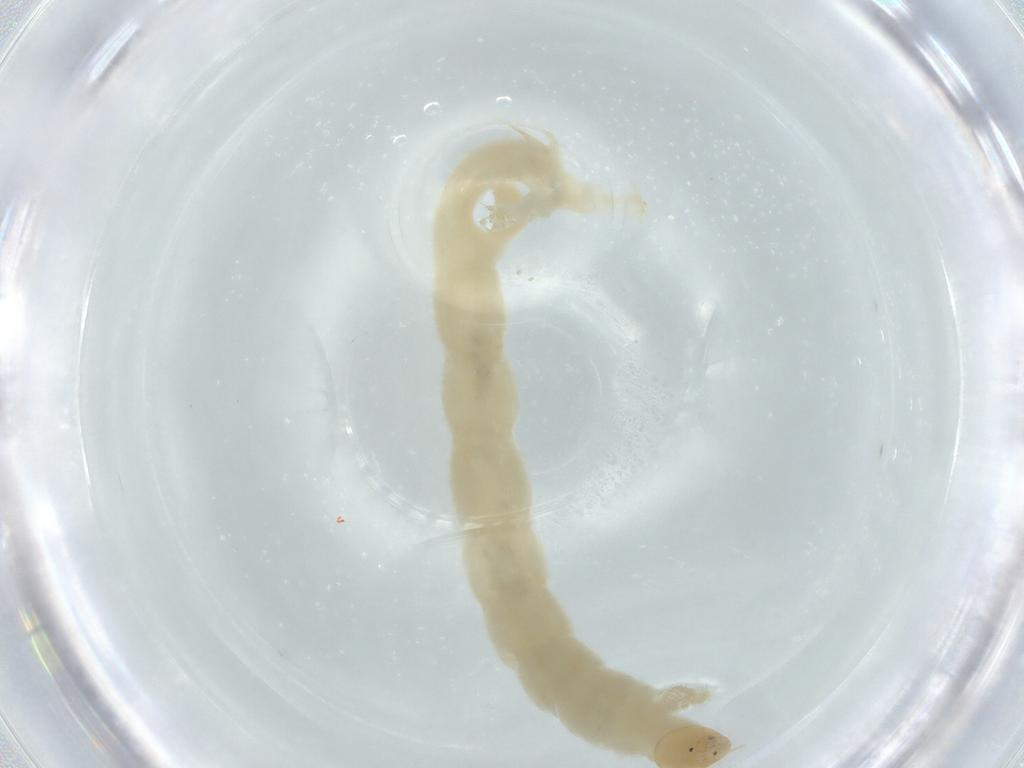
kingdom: Animalia
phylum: Arthropoda
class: Insecta
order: Diptera
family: Chironomidae
